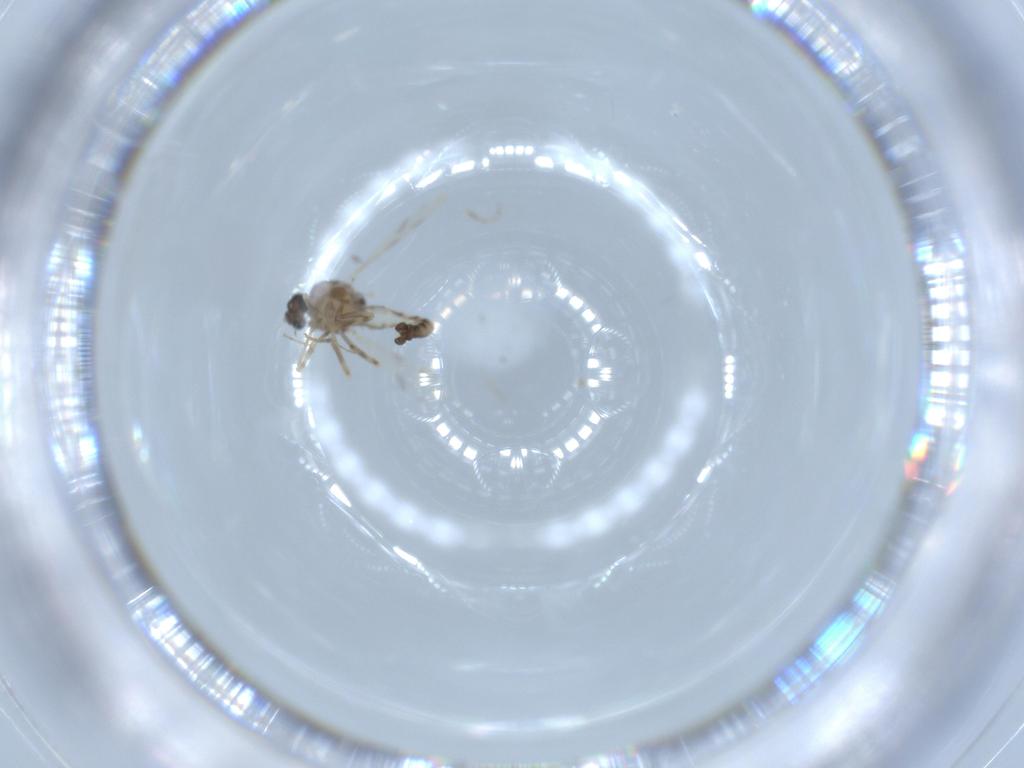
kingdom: Animalia
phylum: Arthropoda
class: Insecta
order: Diptera
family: Ceratopogonidae
